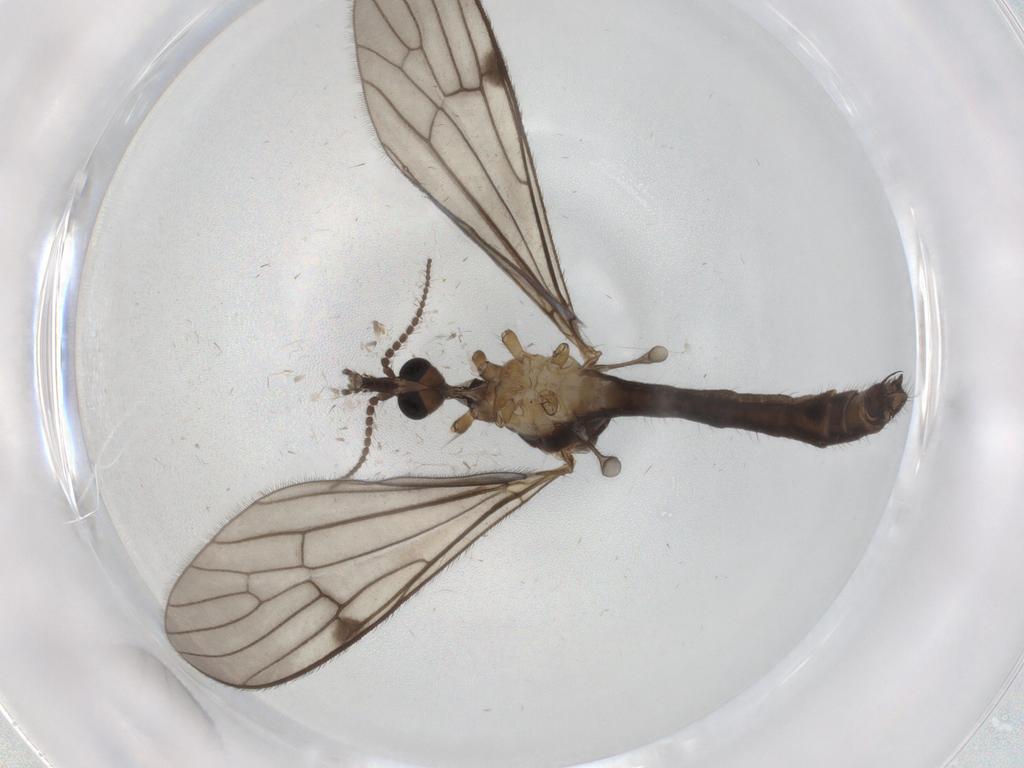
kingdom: Animalia
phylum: Arthropoda
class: Insecta
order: Diptera
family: Limoniidae
